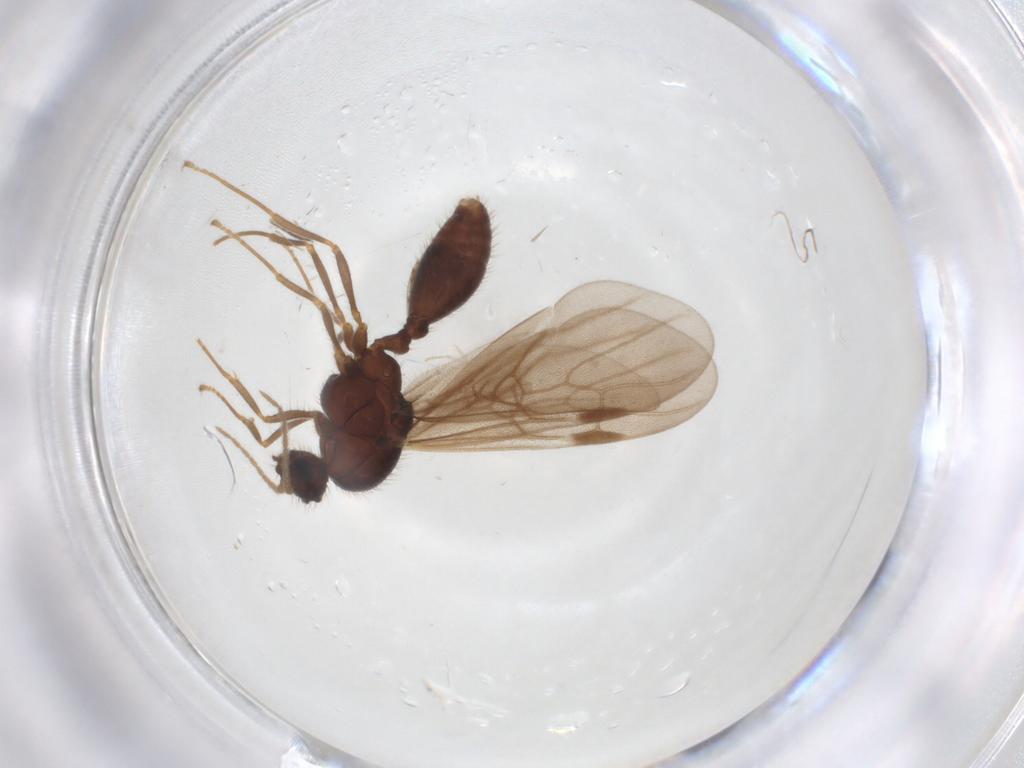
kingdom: Animalia
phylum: Arthropoda
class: Insecta
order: Hymenoptera
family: Formicidae
